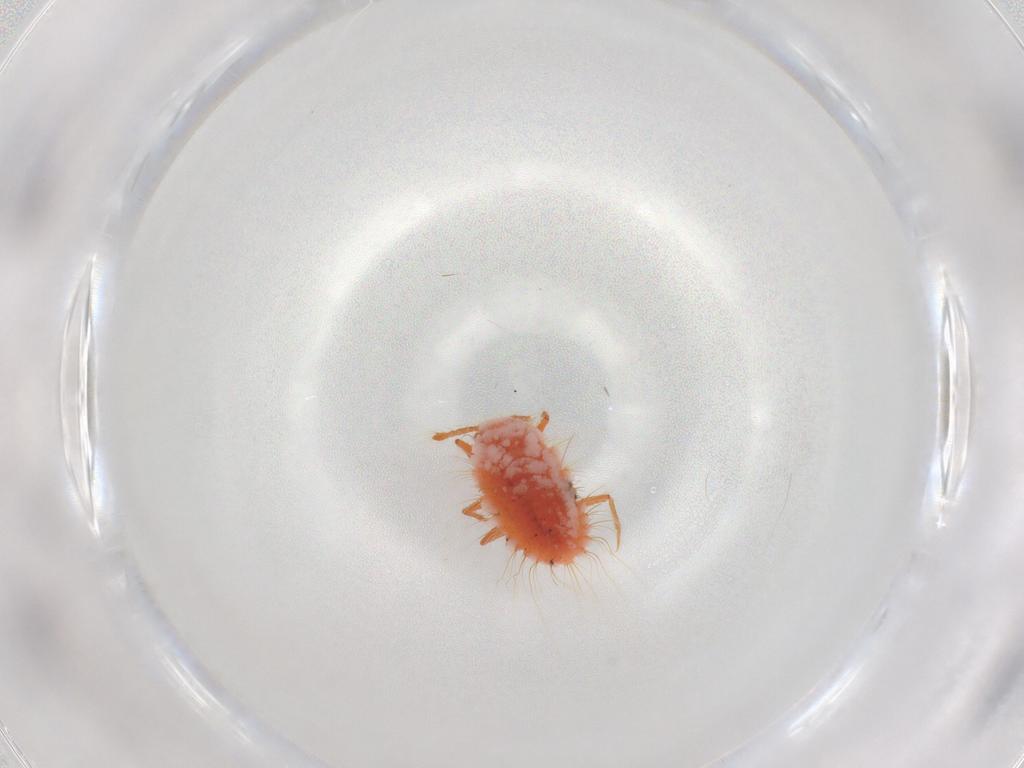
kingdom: Animalia
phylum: Arthropoda
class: Insecta
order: Hemiptera
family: Coccoidea_incertae_sedis
